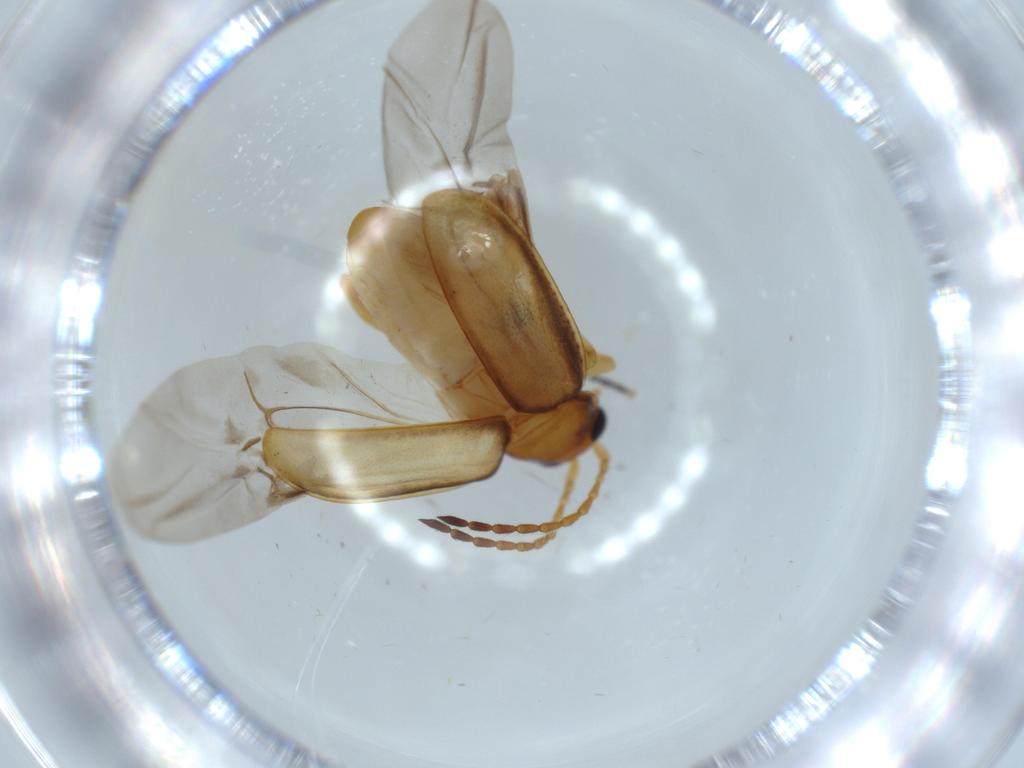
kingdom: Animalia
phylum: Arthropoda
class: Insecta
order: Coleoptera
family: Chrysomelidae
